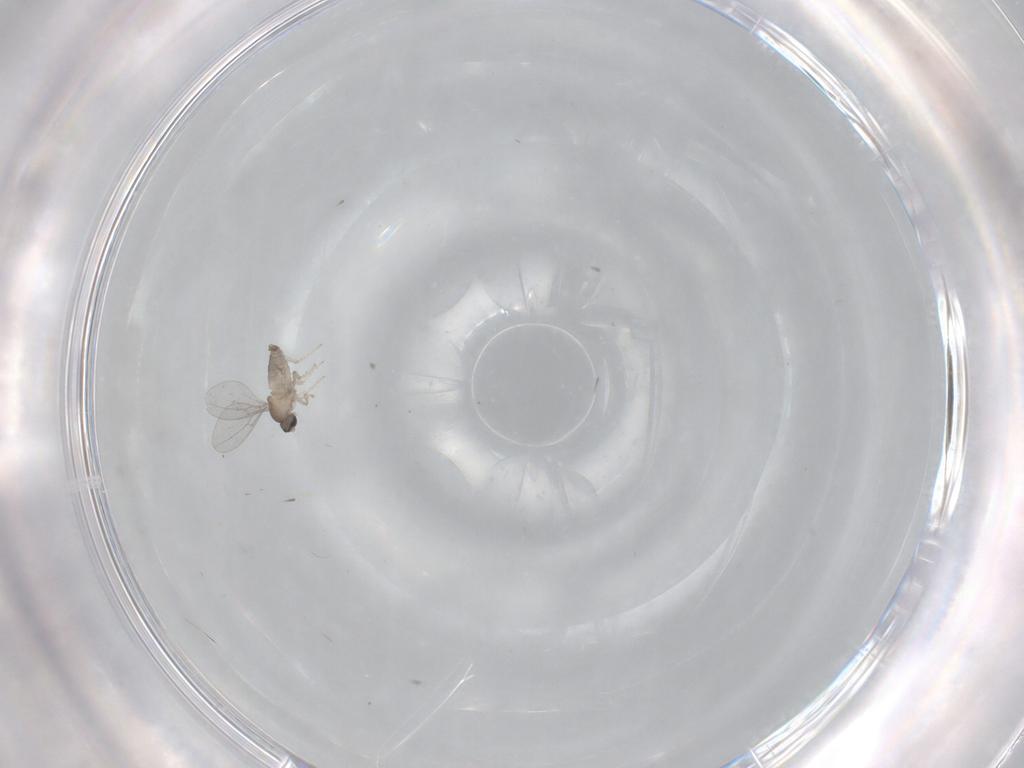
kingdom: Animalia
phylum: Arthropoda
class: Insecta
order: Diptera
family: Cecidomyiidae
